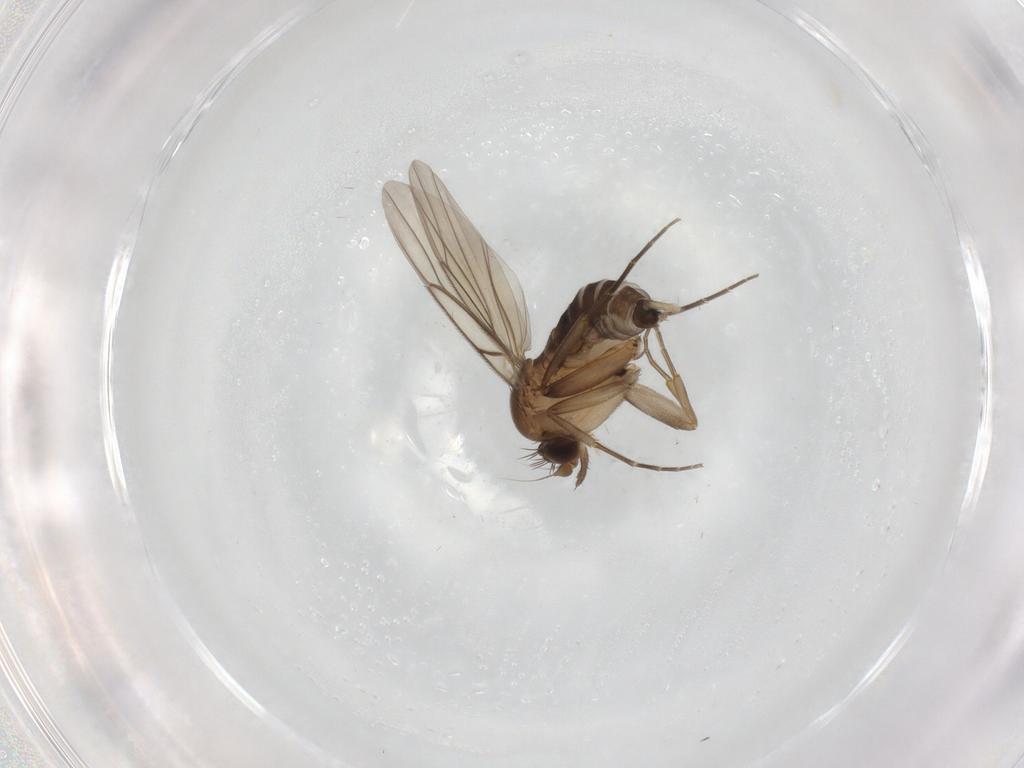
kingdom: Animalia
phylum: Arthropoda
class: Insecta
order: Diptera
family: Phoridae
